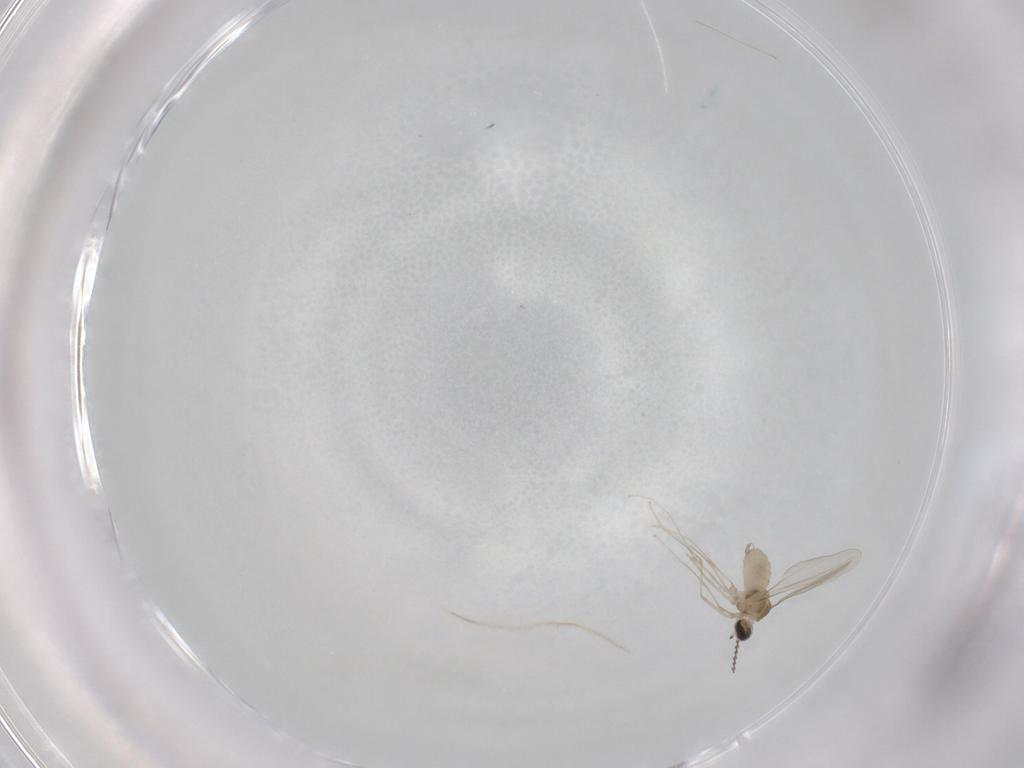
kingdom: Animalia
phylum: Arthropoda
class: Insecta
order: Diptera
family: Cecidomyiidae
